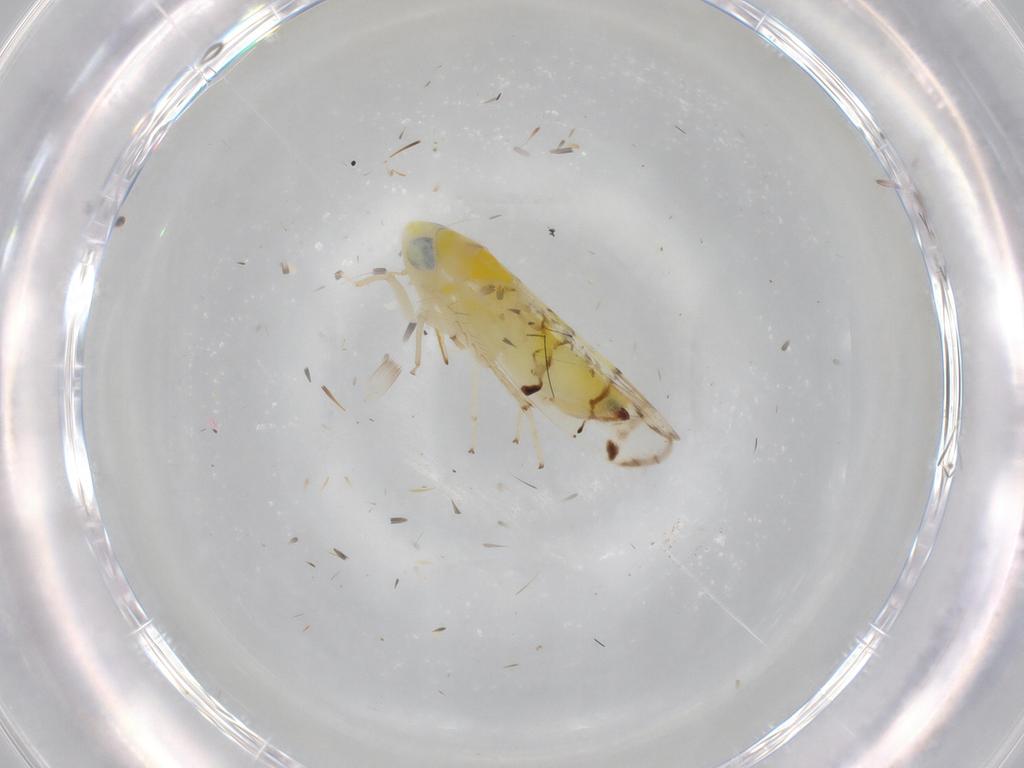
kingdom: Animalia
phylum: Arthropoda
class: Insecta
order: Hemiptera
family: Cicadellidae
